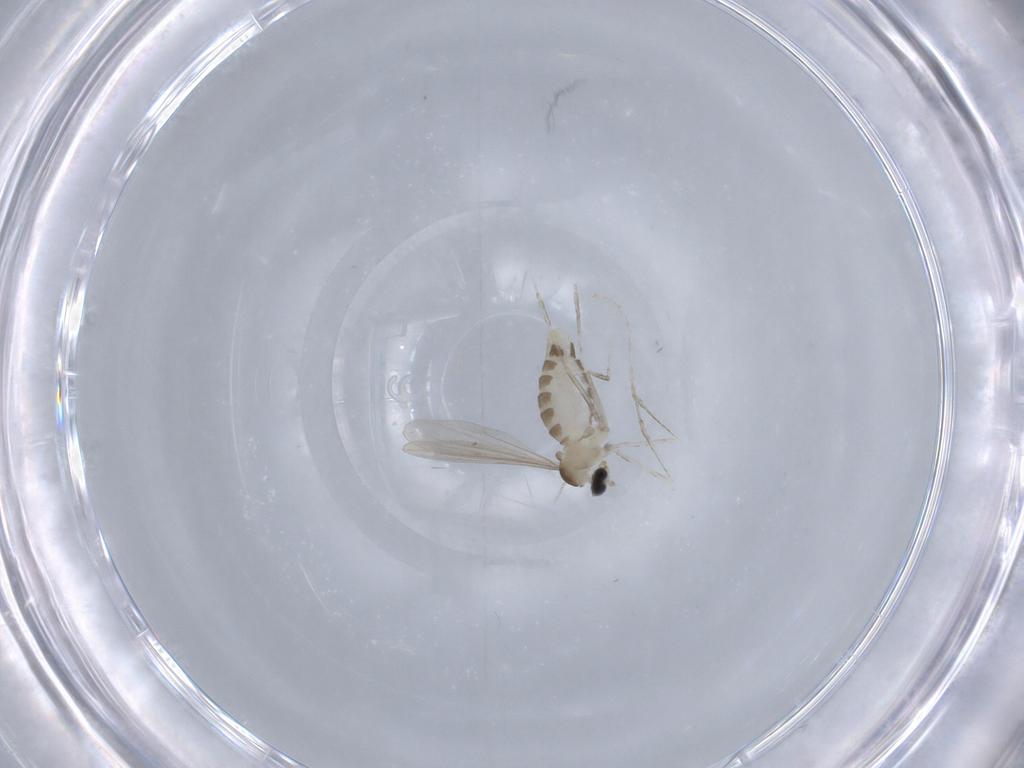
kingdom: Animalia
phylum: Arthropoda
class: Insecta
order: Diptera
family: Cecidomyiidae
